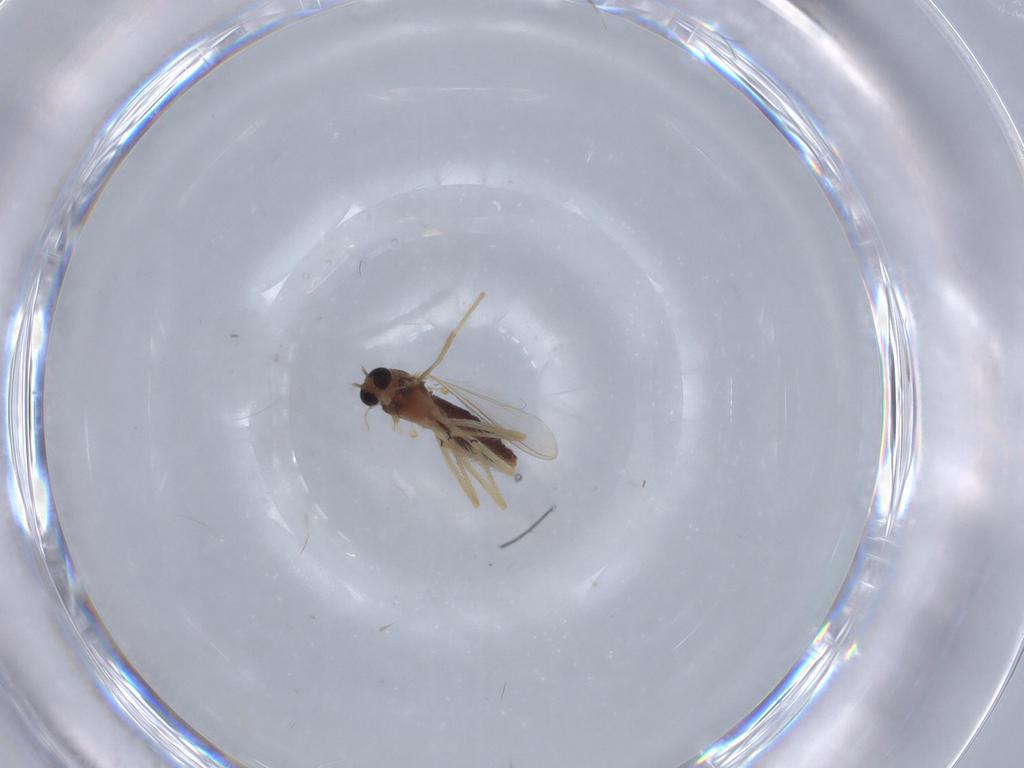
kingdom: Animalia
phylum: Arthropoda
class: Insecta
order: Diptera
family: Chironomidae
